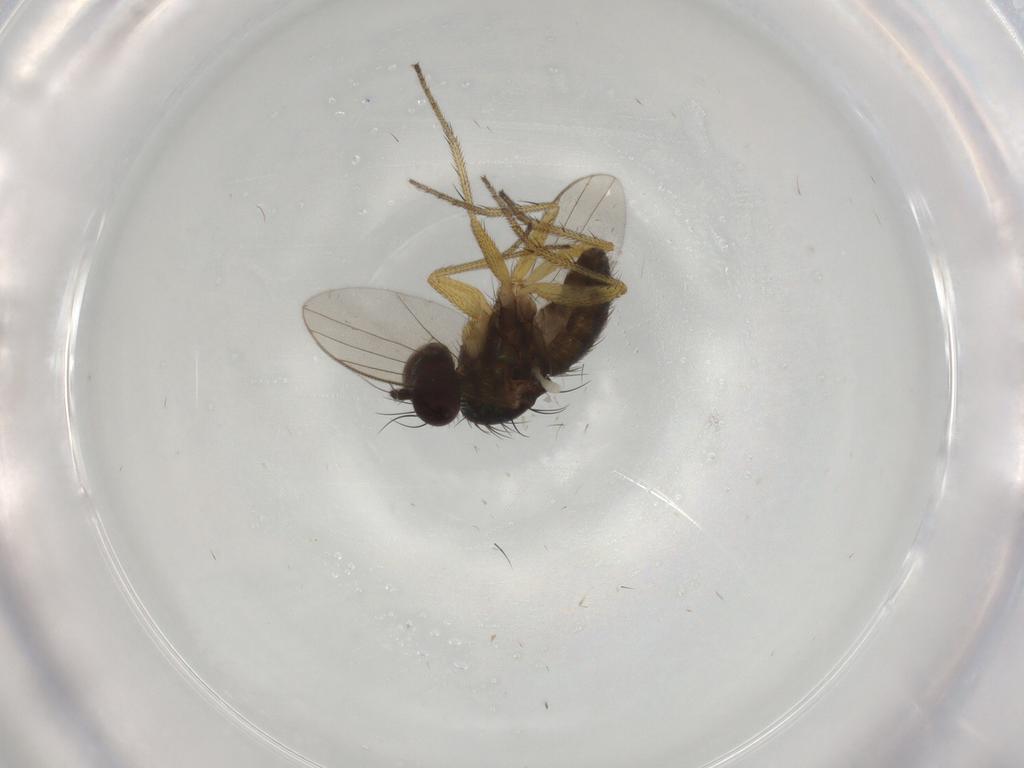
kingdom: Animalia
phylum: Arthropoda
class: Insecta
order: Diptera
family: Dolichopodidae
